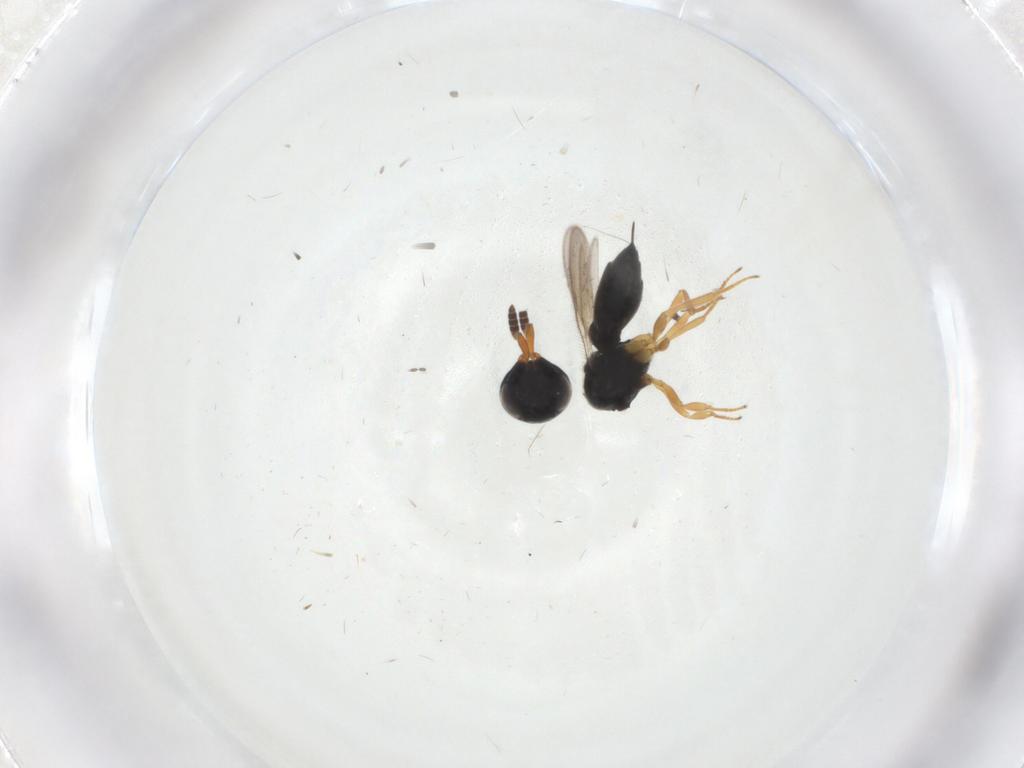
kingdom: Animalia
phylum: Arthropoda
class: Insecta
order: Hymenoptera
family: Scelionidae
